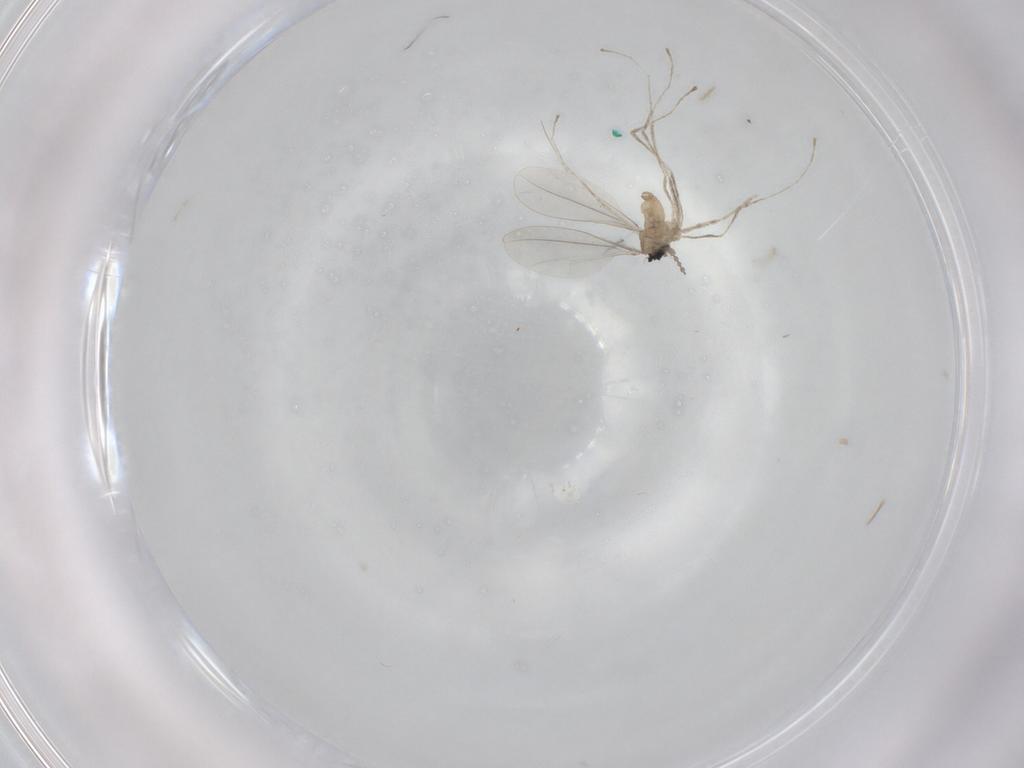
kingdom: Animalia
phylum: Arthropoda
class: Insecta
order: Diptera
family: Cecidomyiidae
